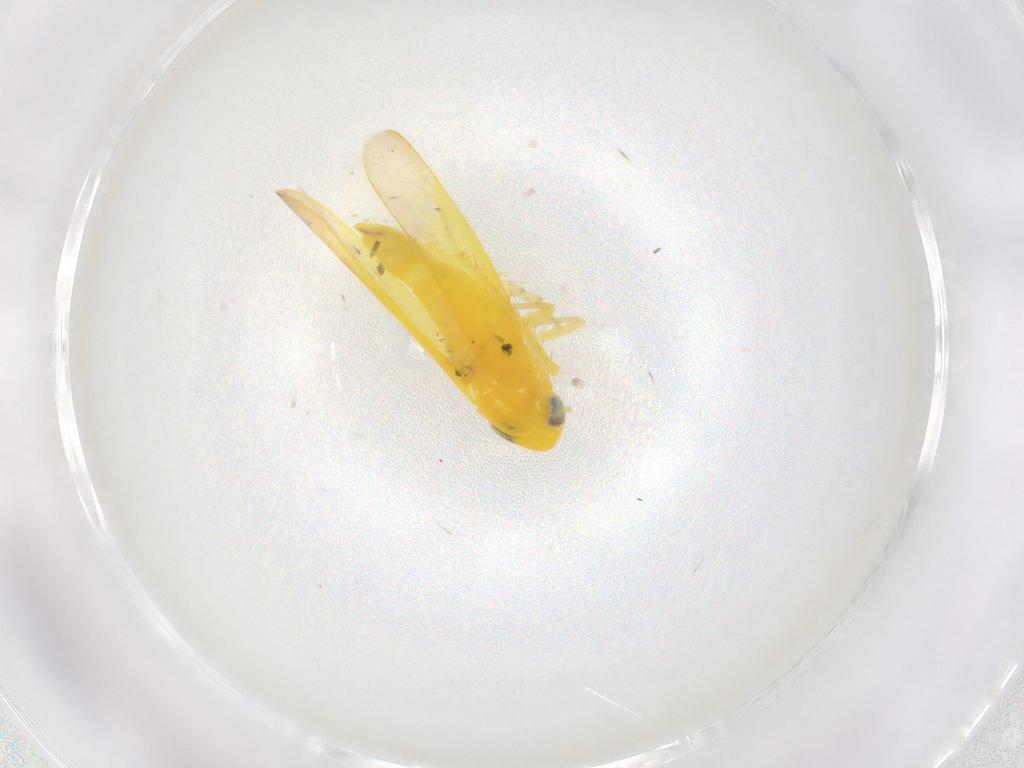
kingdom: Animalia
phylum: Arthropoda
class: Insecta
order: Hemiptera
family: Cicadellidae
